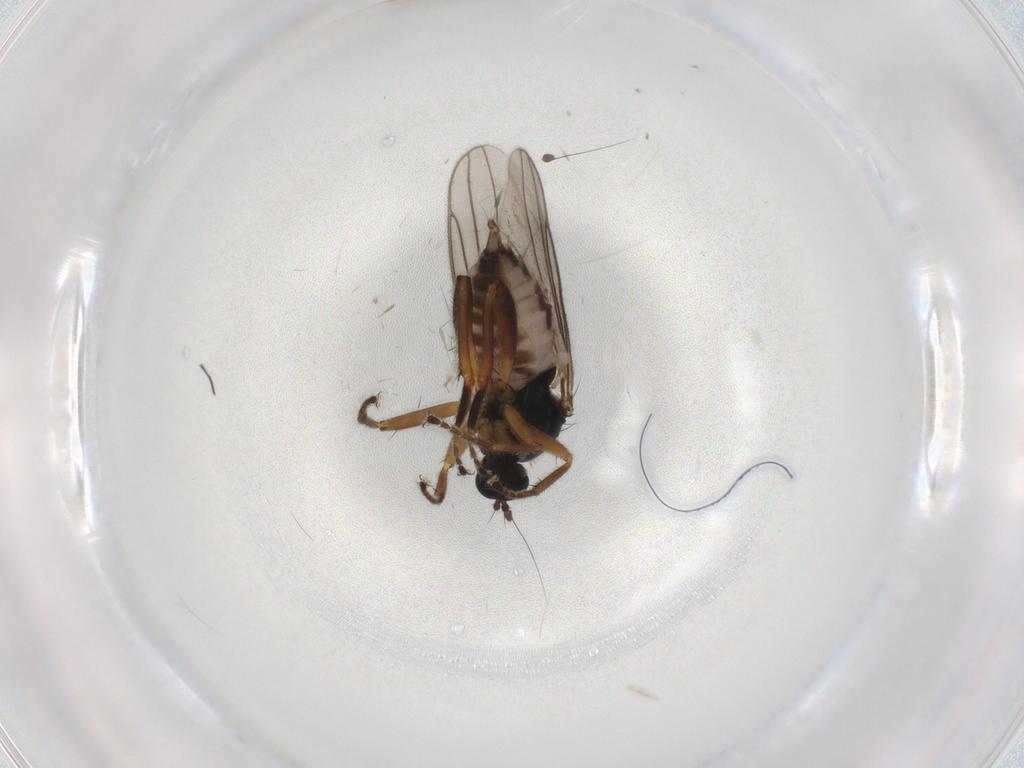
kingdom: Animalia
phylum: Arthropoda
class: Insecta
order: Diptera
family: Hybotidae
